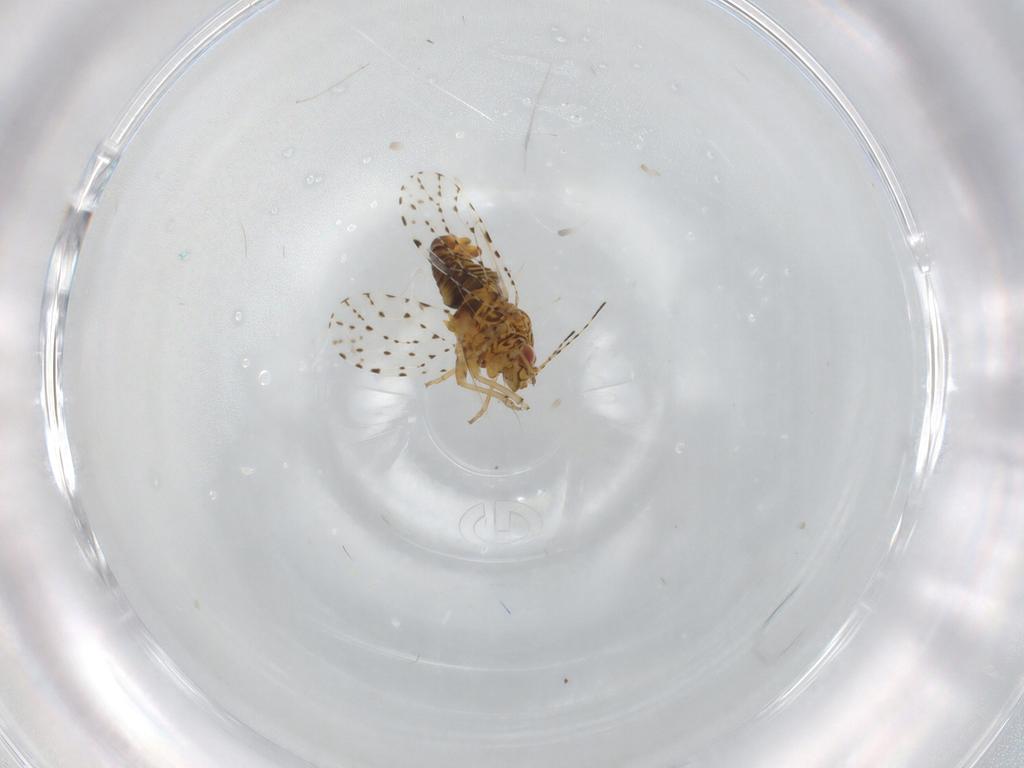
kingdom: Animalia
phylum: Arthropoda
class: Insecta
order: Hemiptera
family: Psyllidae
